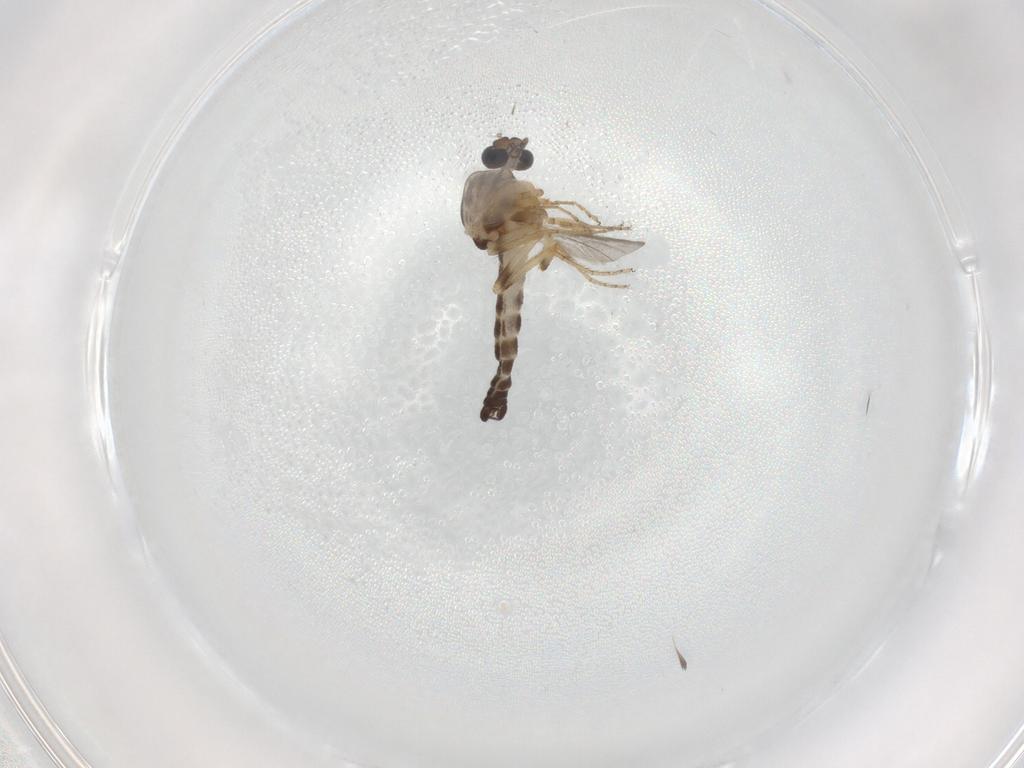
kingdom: Animalia
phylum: Arthropoda
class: Insecta
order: Diptera
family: Ceratopogonidae
